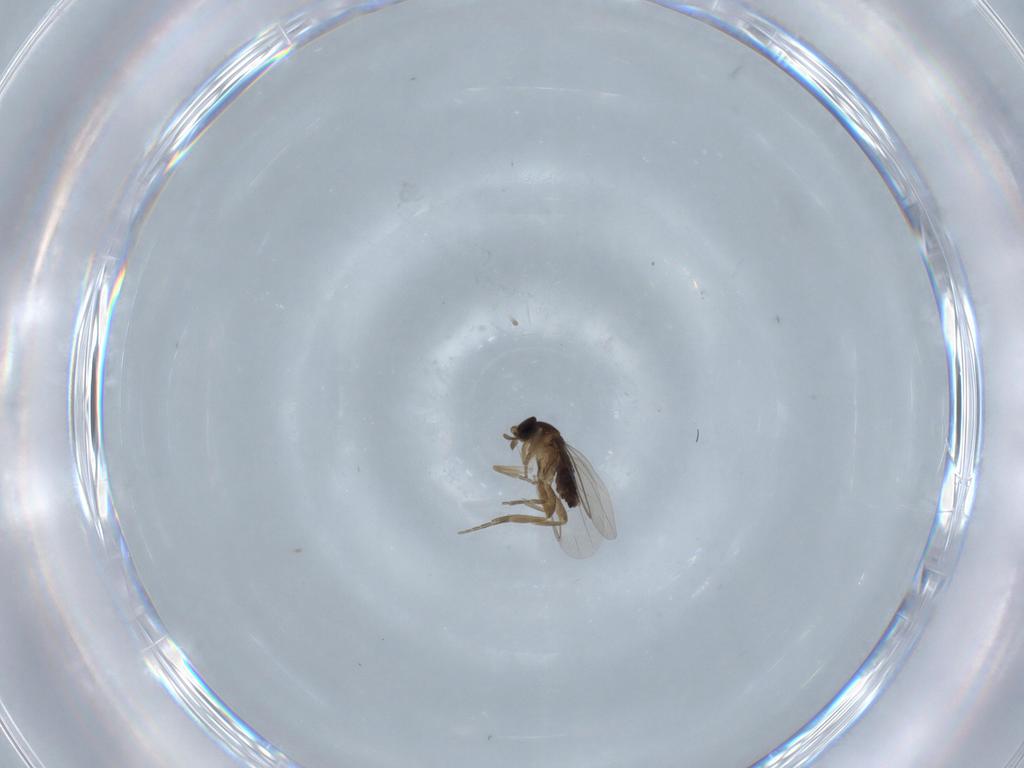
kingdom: Animalia
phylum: Arthropoda
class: Insecta
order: Diptera
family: Phoridae
